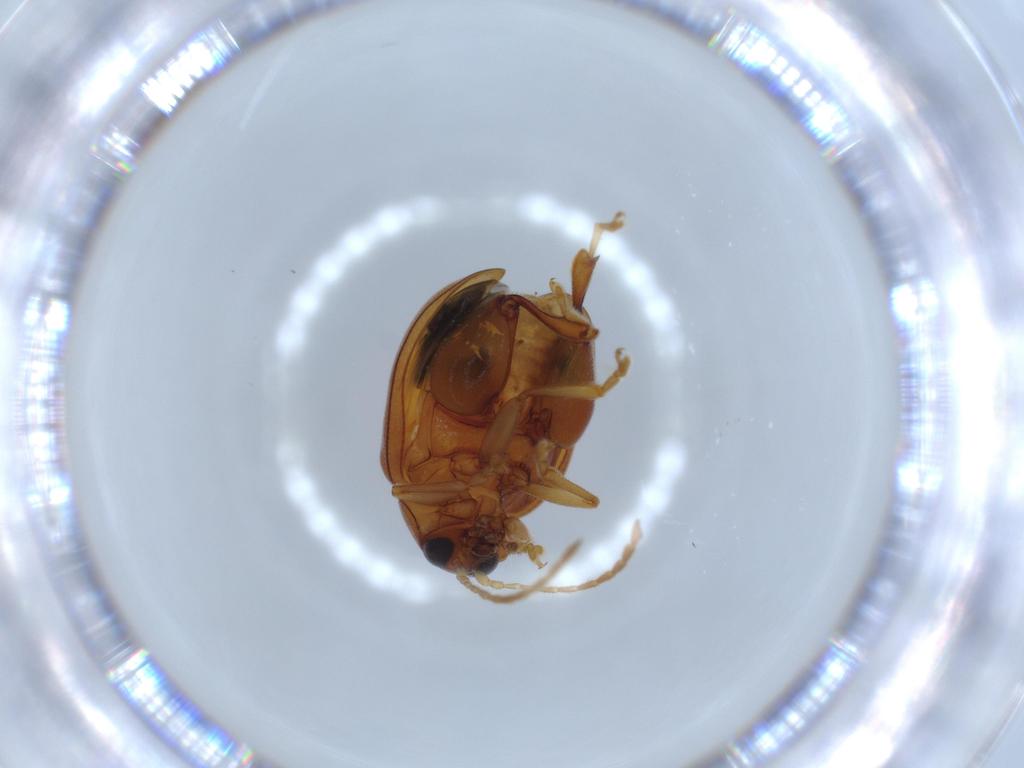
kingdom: Animalia
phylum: Arthropoda
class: Insecta
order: Coleoptera
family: Chrysomelidae
